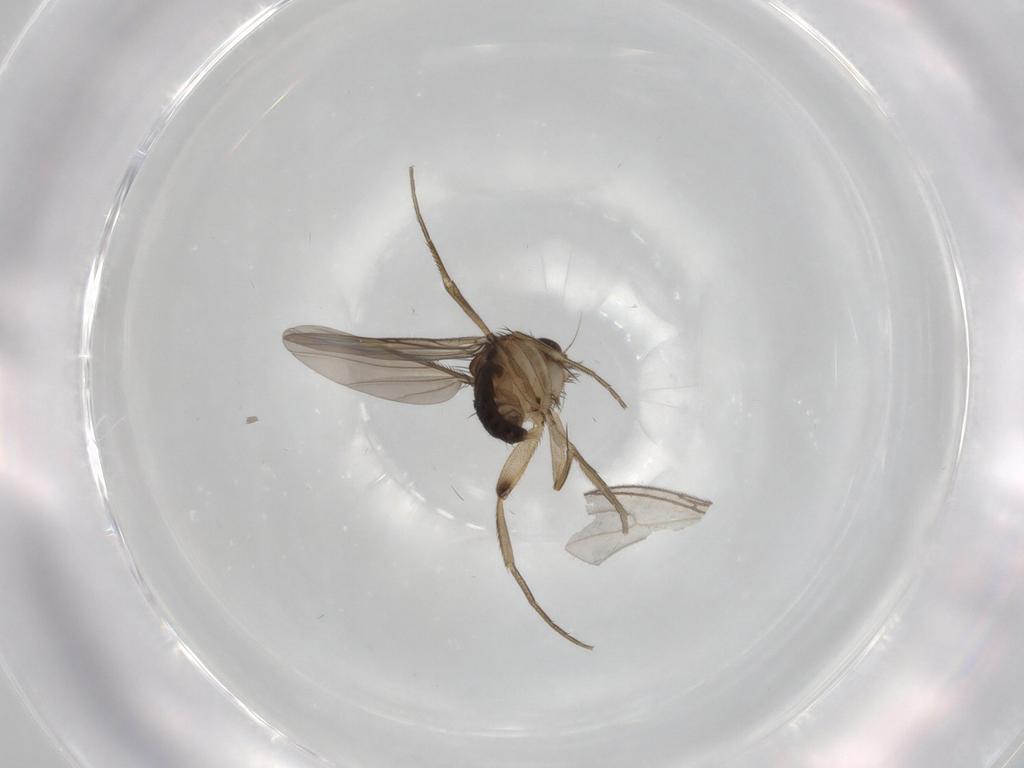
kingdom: Animalia
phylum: Arthropoda
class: Insecta
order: Diptera
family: Phoridae
